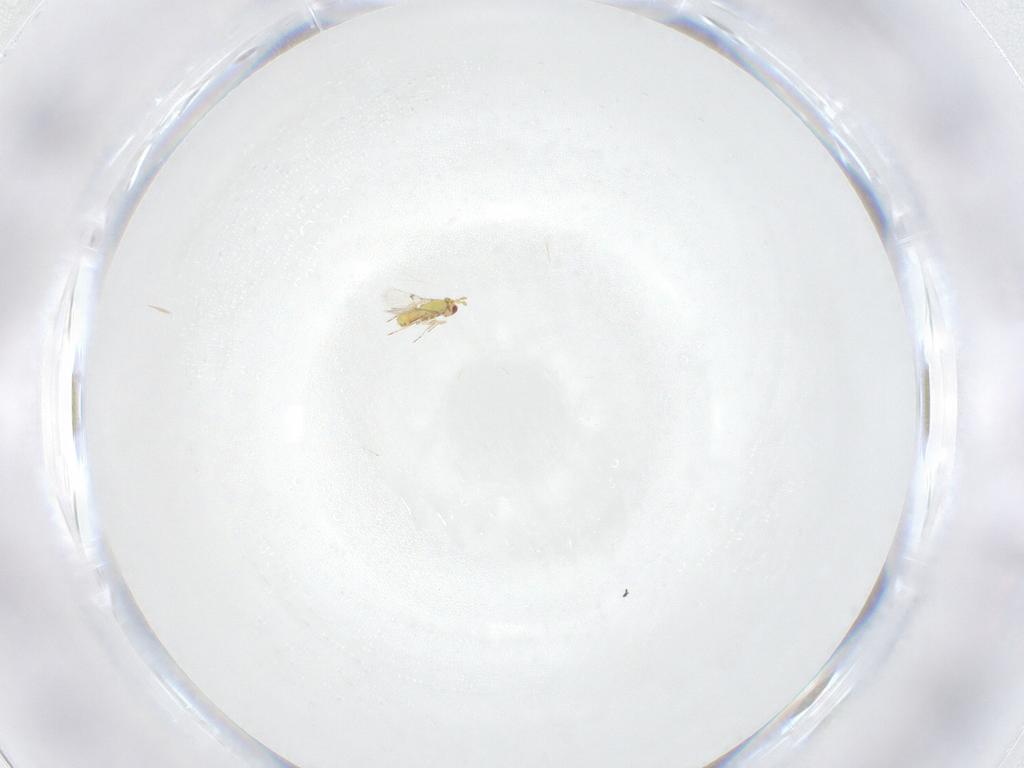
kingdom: Animalia
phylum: Arthropoda
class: Insecta
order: Hymenoptera
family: Trichogrammatidae
